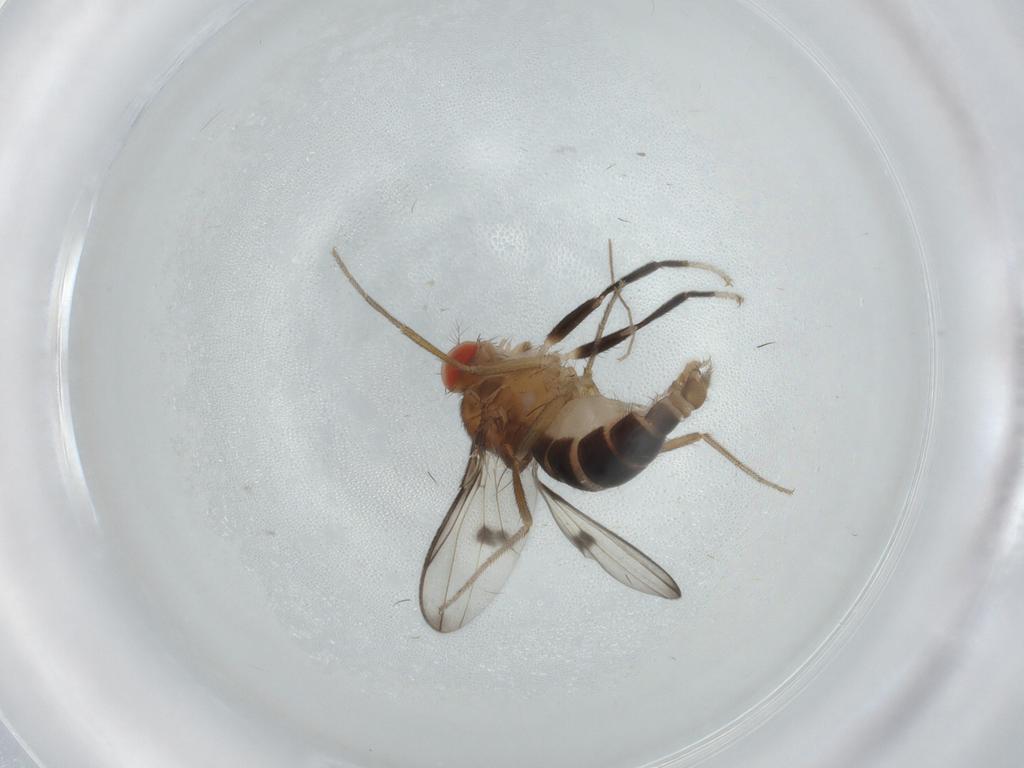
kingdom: Animalia
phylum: Arthropoda
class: Insecta
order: Diptera
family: Drosophilidae
